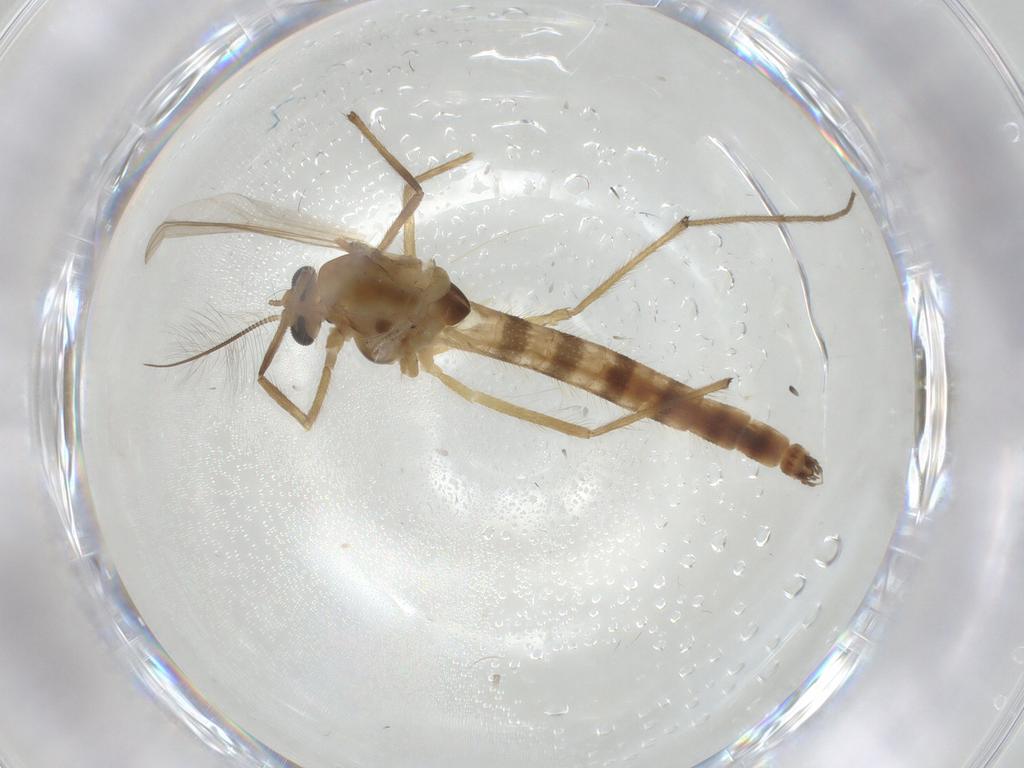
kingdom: Animalia
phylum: Arthropoda
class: Insecta
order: Diptera
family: Chironomidae
